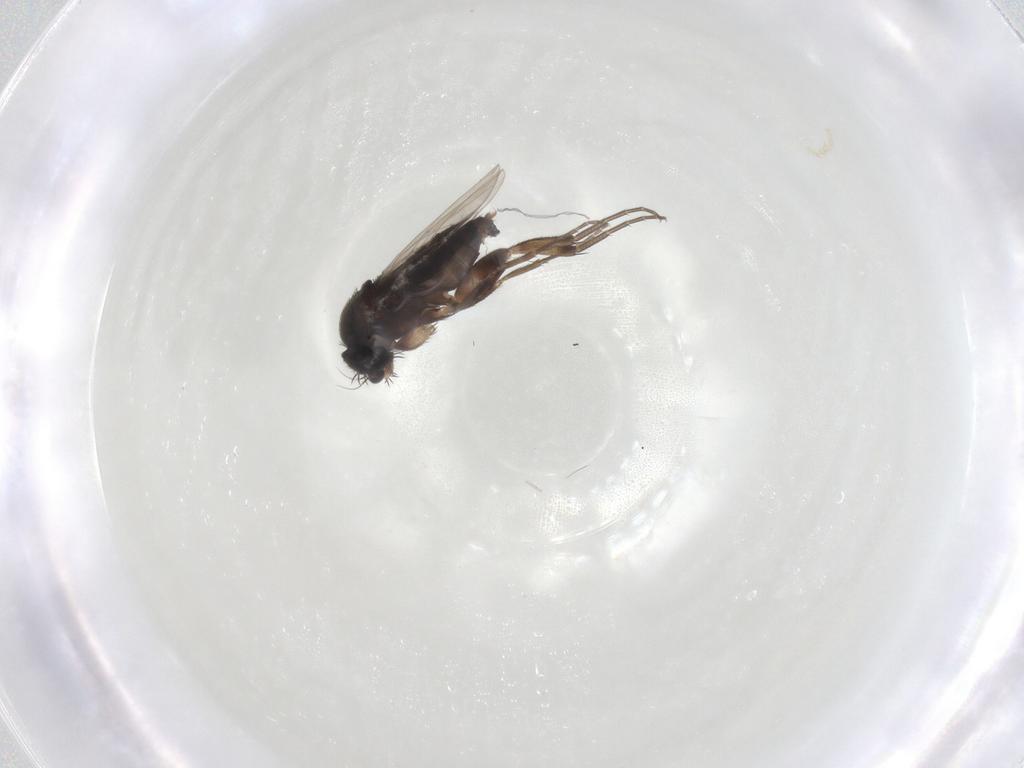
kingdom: Animalia
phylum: Arthropoda
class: Insecta
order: Diptera
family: Phoridae
